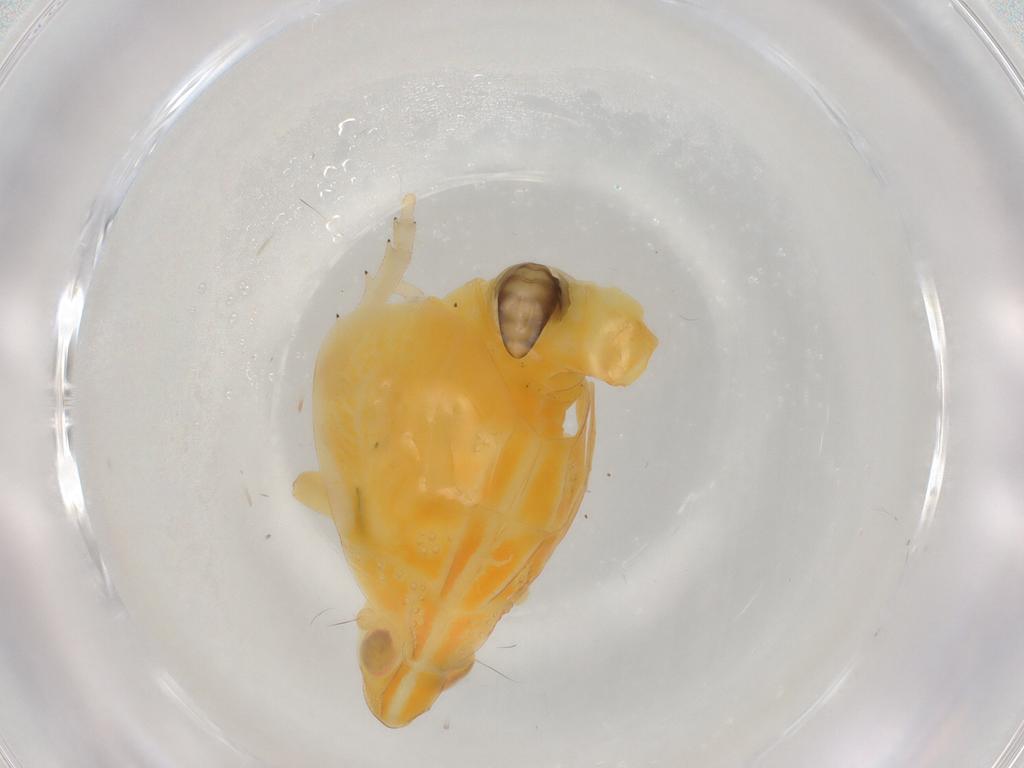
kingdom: Animalia
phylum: Arthropoda
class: Insecta
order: Hemiptera
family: Tropiduchidae
